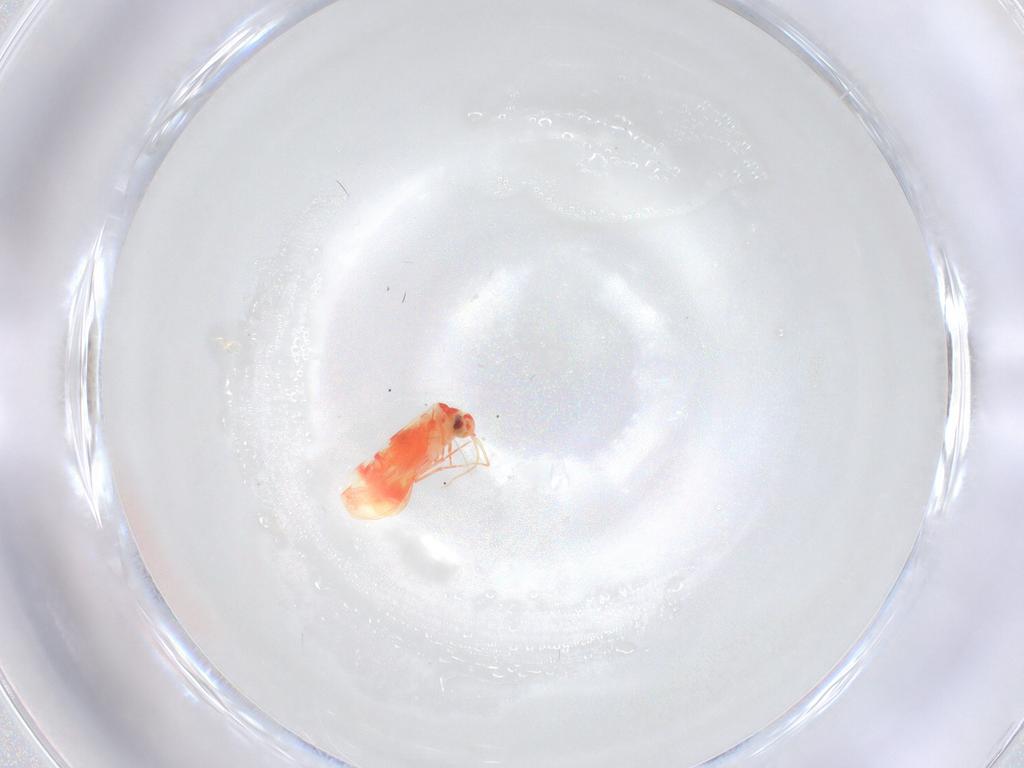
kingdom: Animalia
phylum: Arthropoda
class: Insecta
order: Hemiptera
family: Aleyrodidae
